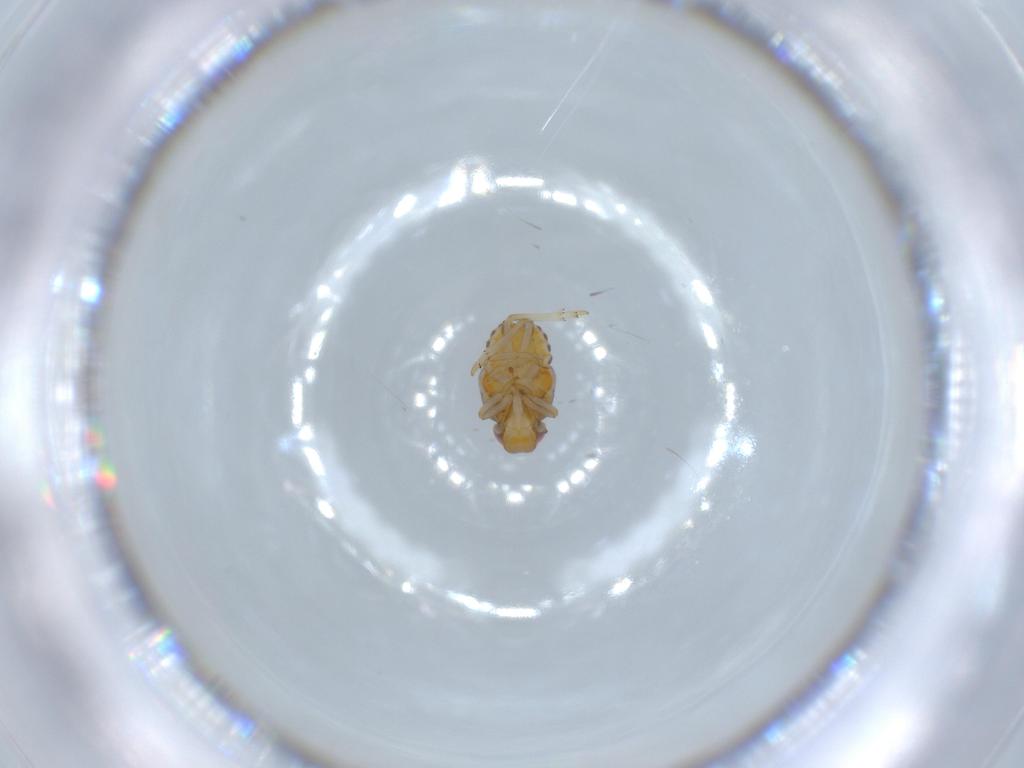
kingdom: Animalia
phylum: Arthropoda
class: Insecta
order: Hemiptera
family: Issidae
